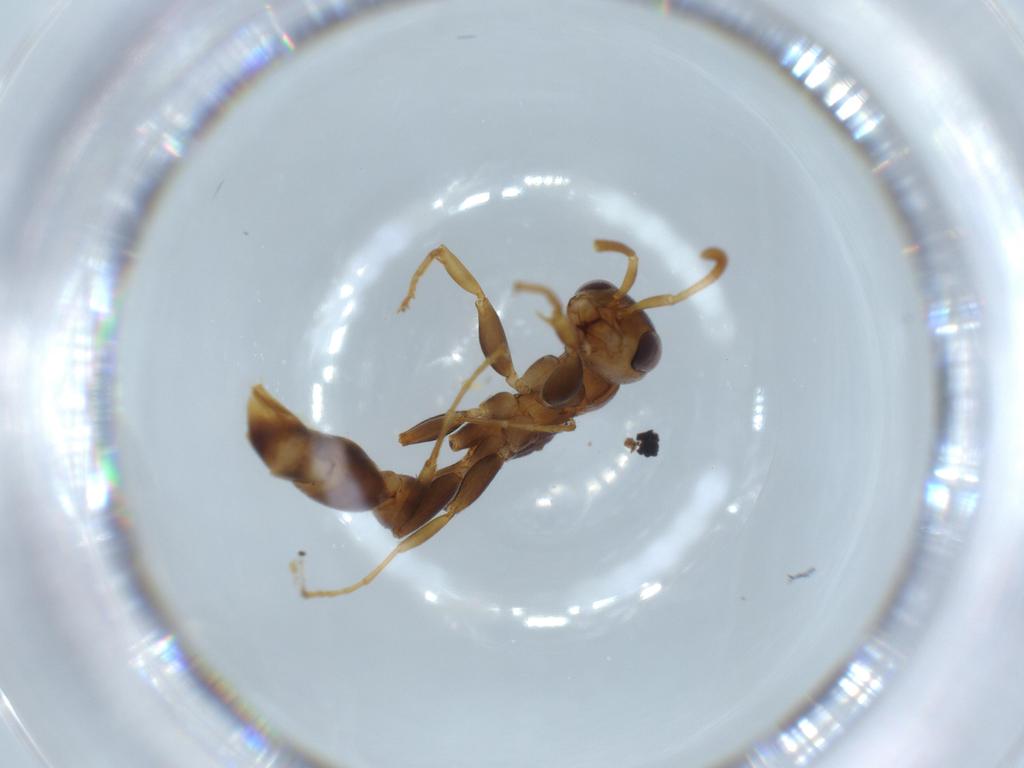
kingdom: Animalia
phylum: Arthropoda
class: Insecta
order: Hymenoptera
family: Formicidae
